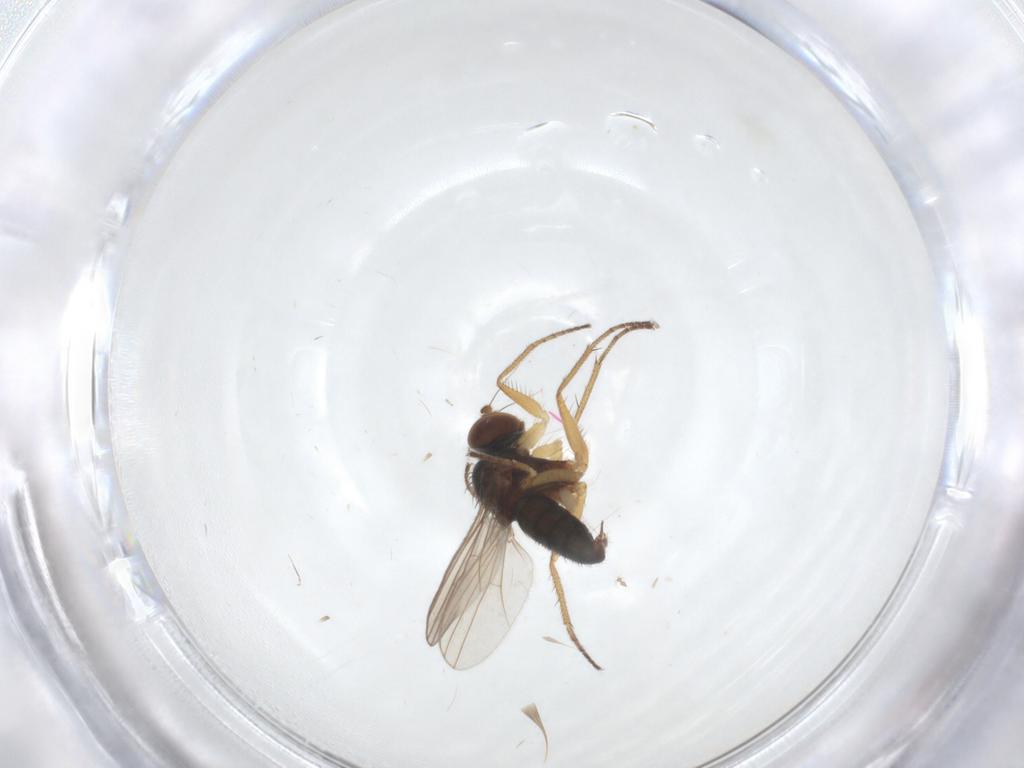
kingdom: Animalia
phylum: Arthropoda
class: Insecta
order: Diptera
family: Dolichopodidae
